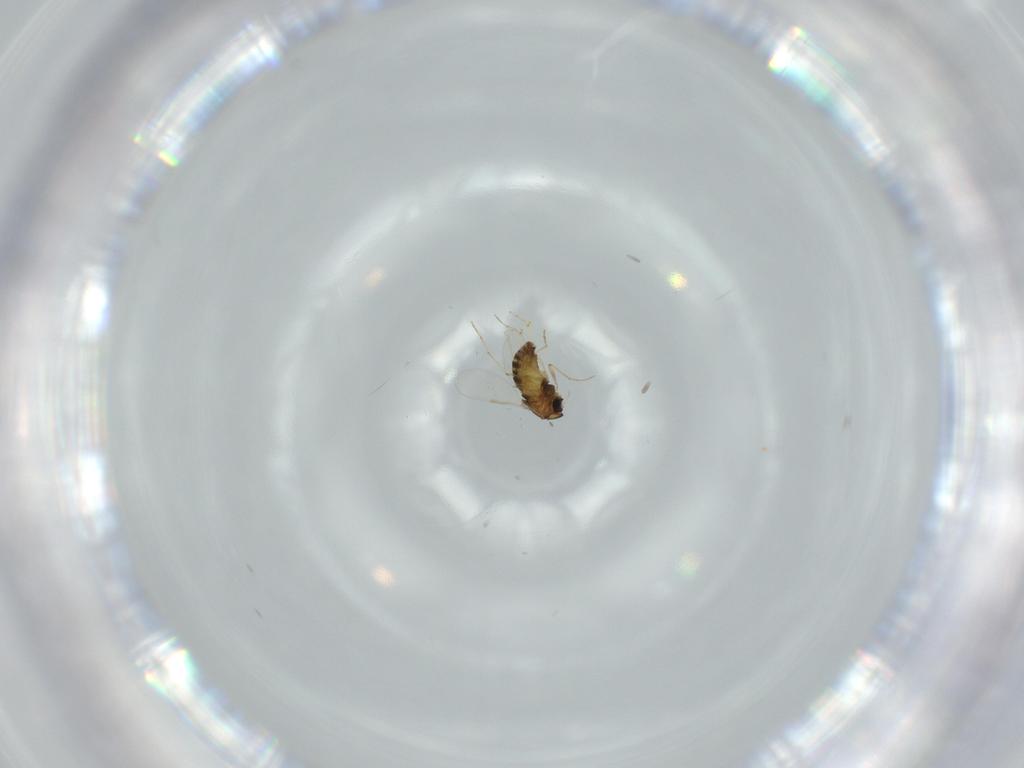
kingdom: Animalia
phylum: Arthropoda
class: Insecta
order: Diptera
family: Chironomidae
